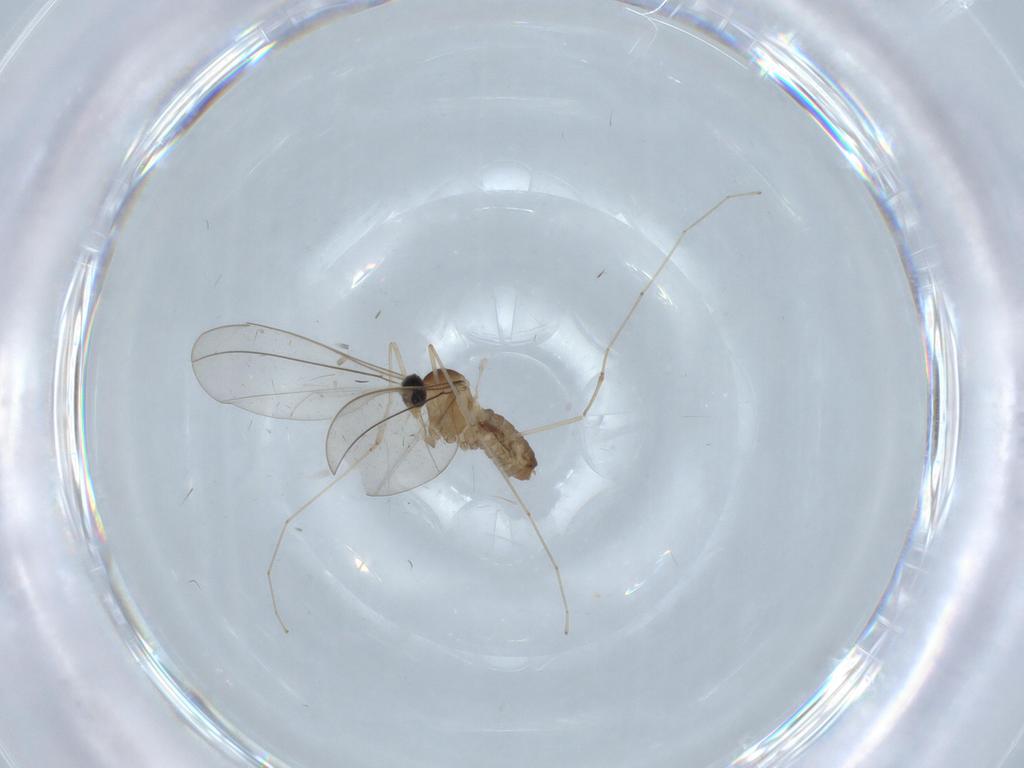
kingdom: Animalia
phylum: Arthropoda
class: Insecta
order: Diptera
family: Cecidomyiidae
